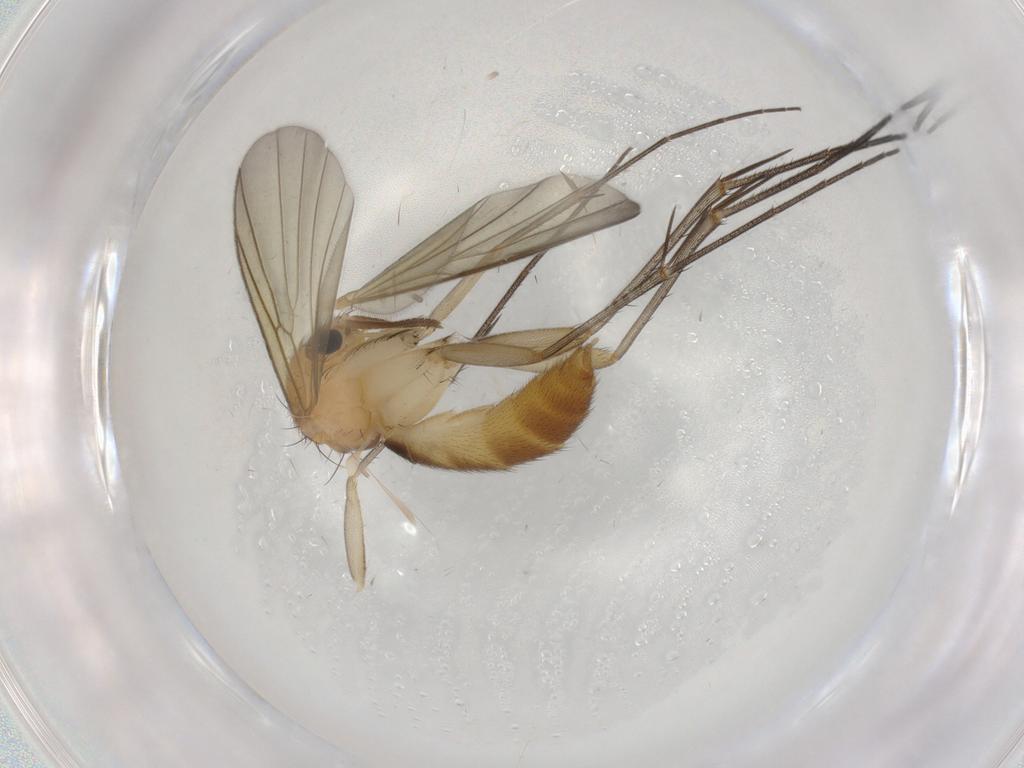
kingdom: Animalia
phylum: Arthropoda
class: Insecta
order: Diptera
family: Mycetophilidae
